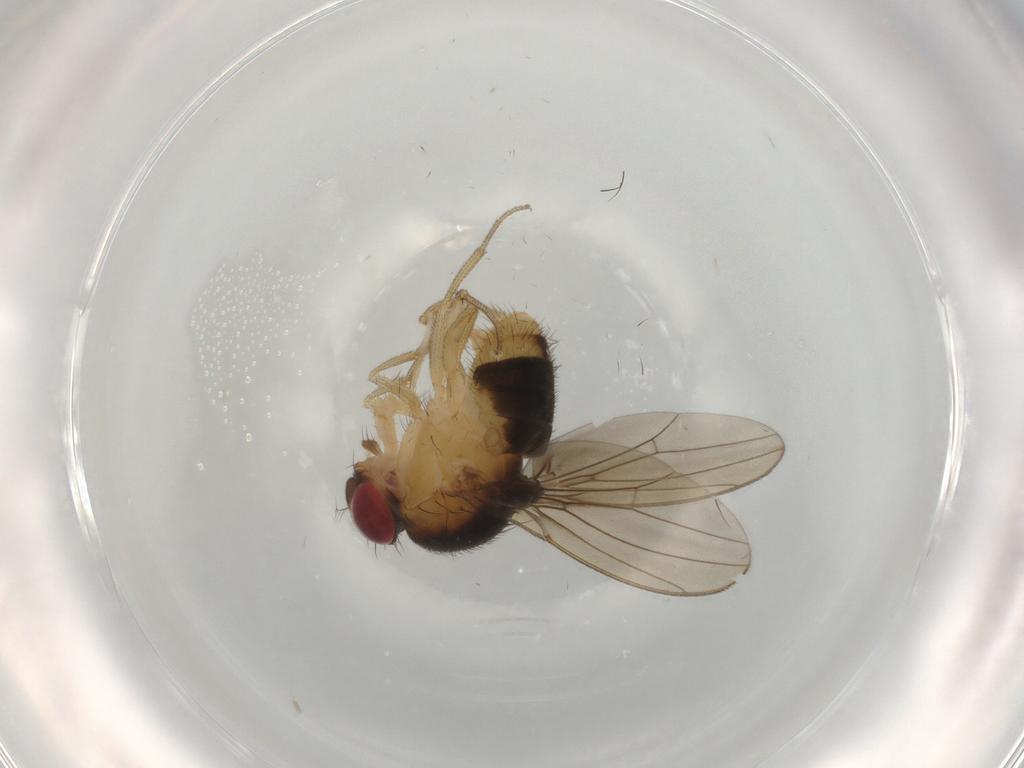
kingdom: Animalia
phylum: Arthropoda
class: Insecta
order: Diptera
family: Drosophilidae
